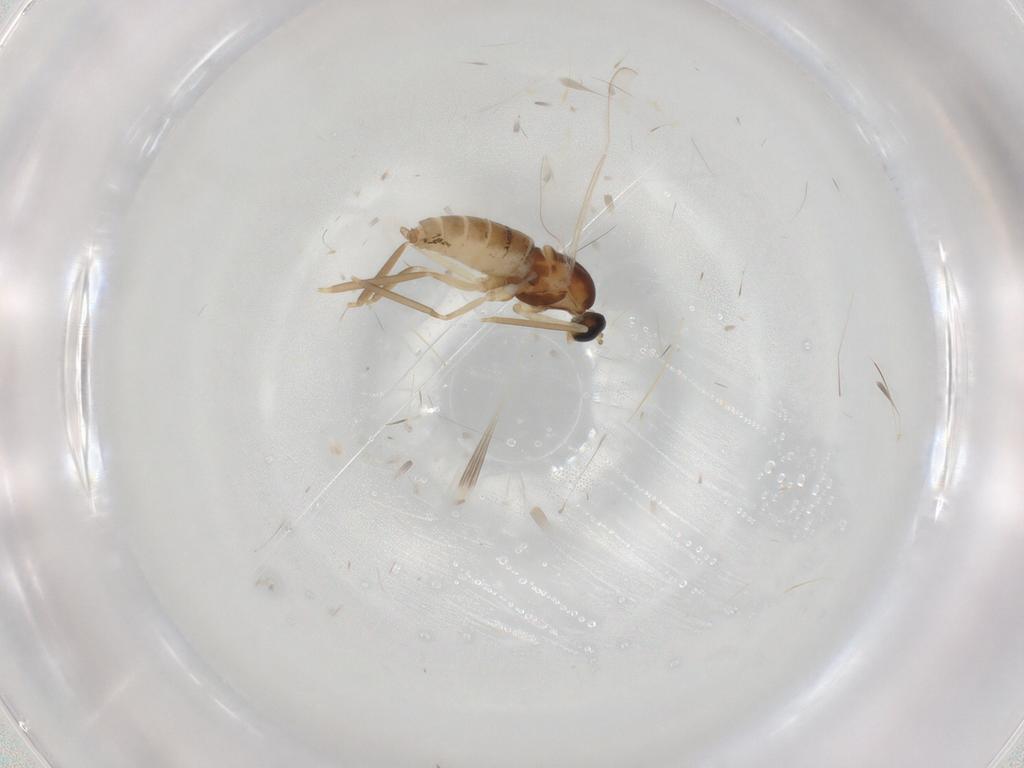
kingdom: Animalia
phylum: Arthropoda
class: Insecta
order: Diptera
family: Cecidomyiidae
